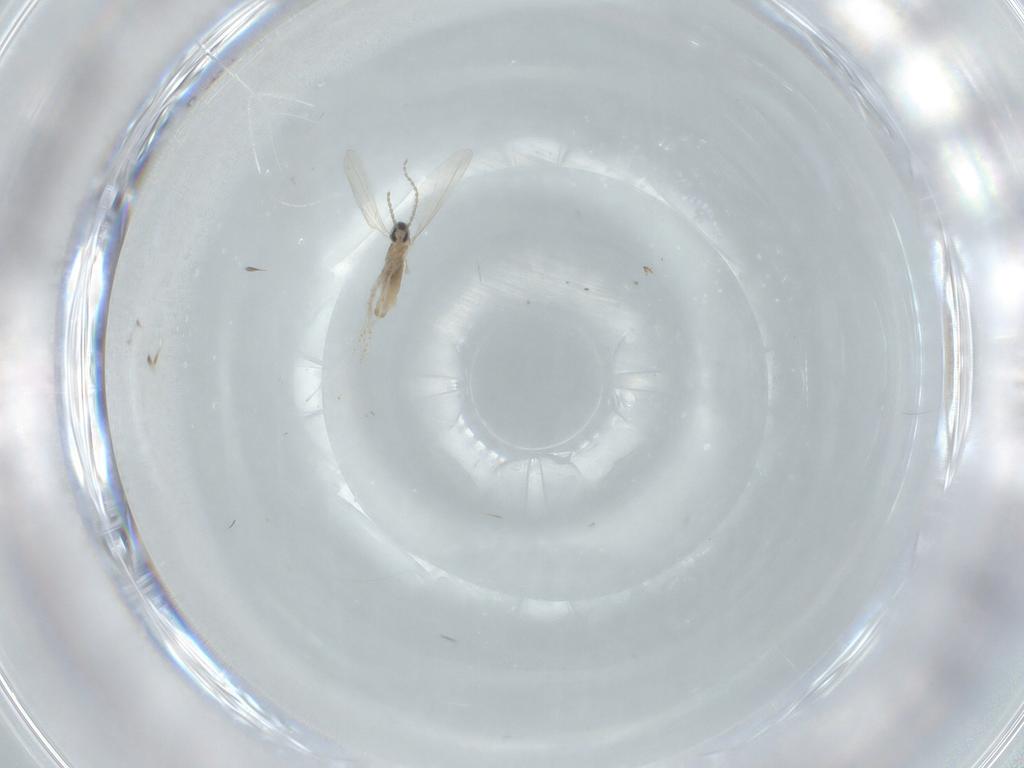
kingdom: Animalia
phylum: Arthropoda
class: Insecta
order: Diptera
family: Cecidomyiidae
